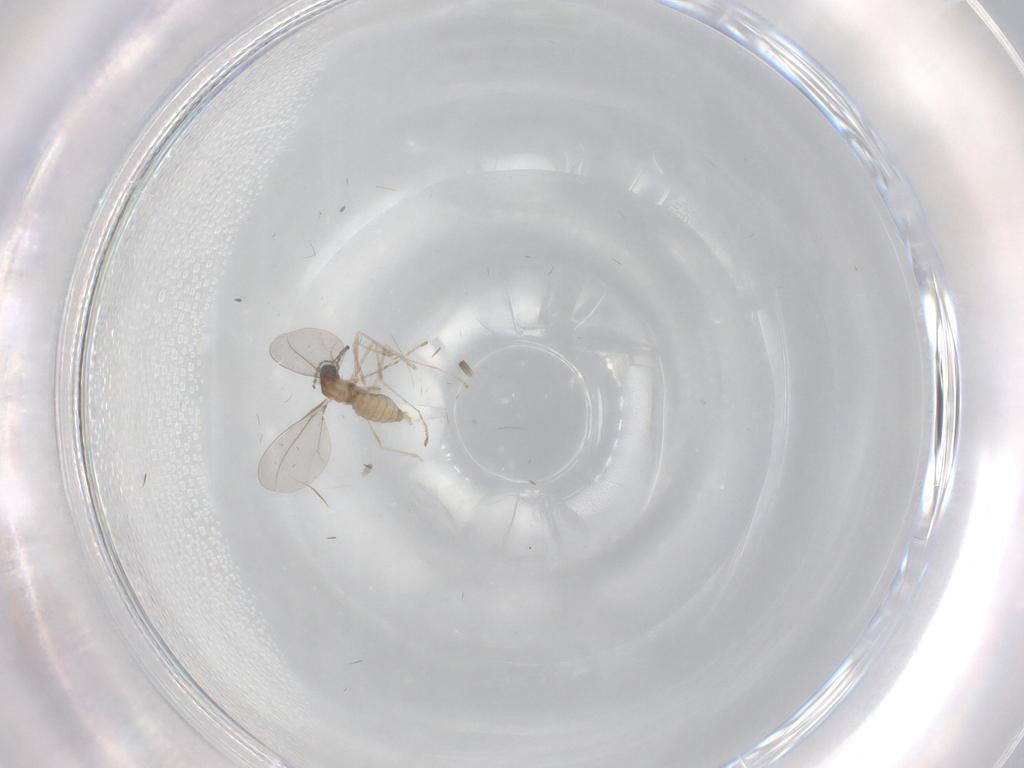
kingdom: Animalia
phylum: Arthropoda
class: Insecta
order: Diptera
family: Cecidomyiidae
